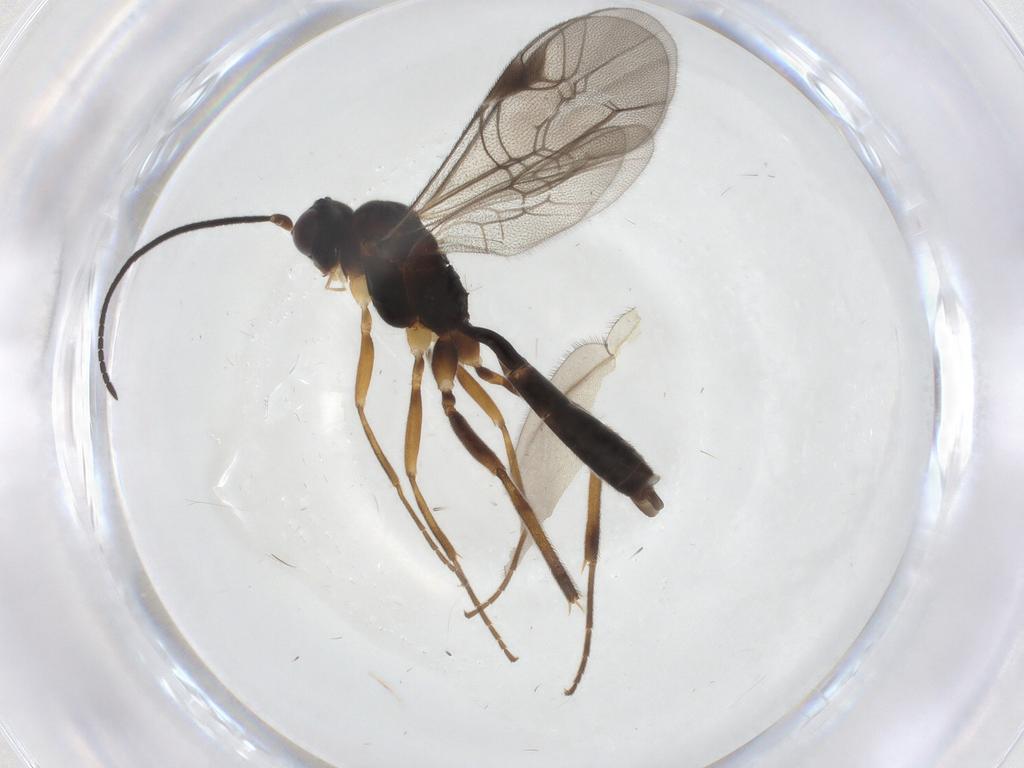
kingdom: Animalia
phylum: Arthropoda
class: Insecta
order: Hymenoptera
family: Ichneumonidae
